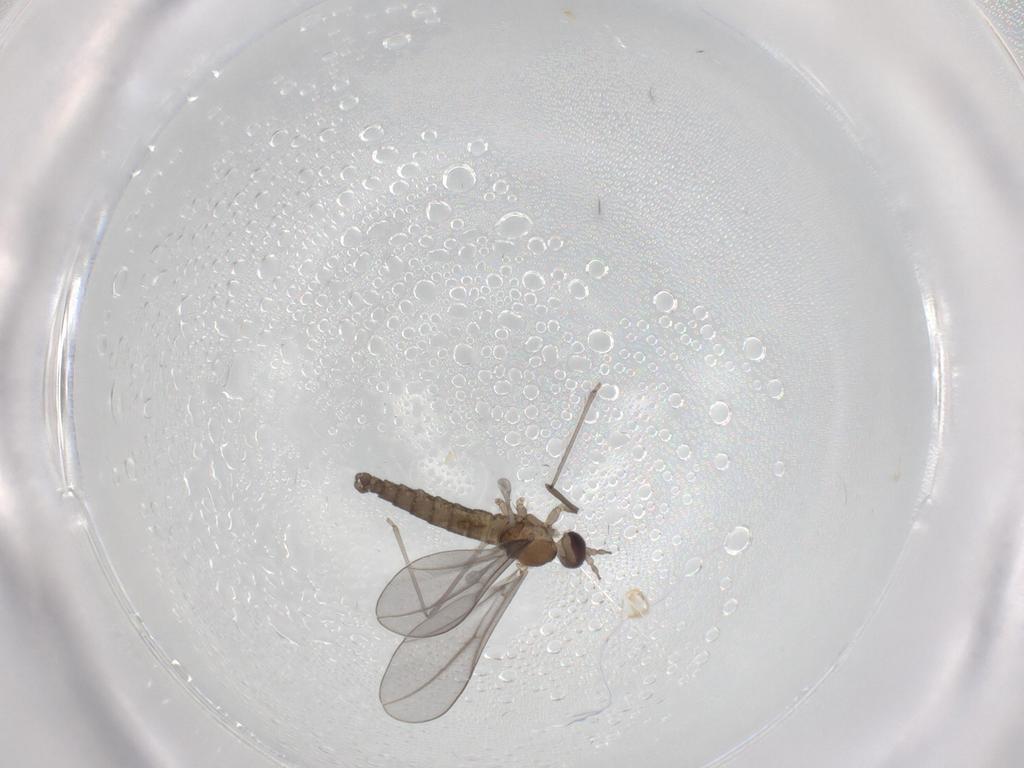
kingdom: Animalia
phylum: Arthropoda
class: Insecta
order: Diptera
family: Cecidomyiidae
